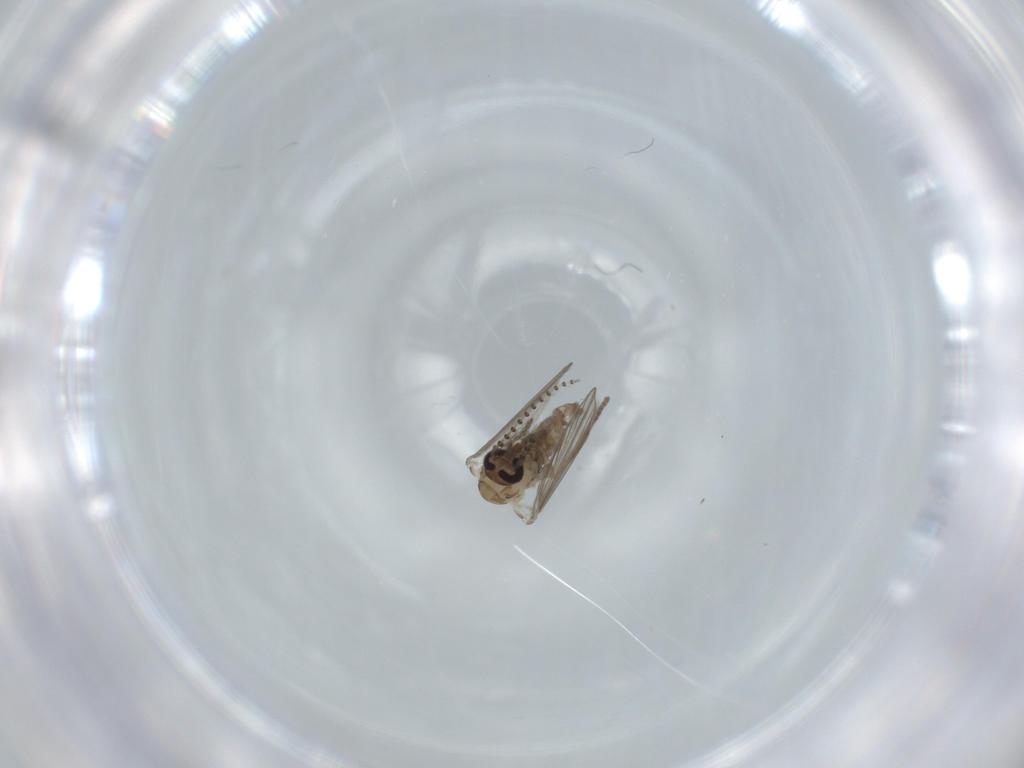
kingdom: Animalia
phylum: Arthropoda
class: Insecta
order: Diptera
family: Psychodidae
